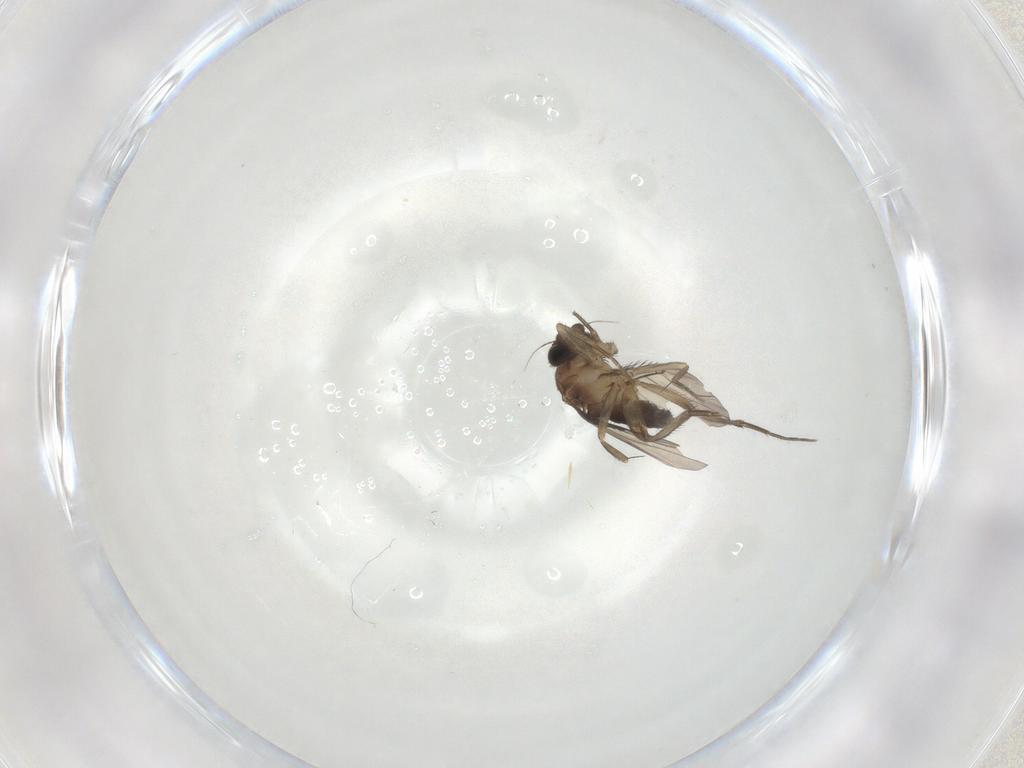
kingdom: Animalia
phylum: Arthropoda
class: Insecta
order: Diptera
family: Phoridae
